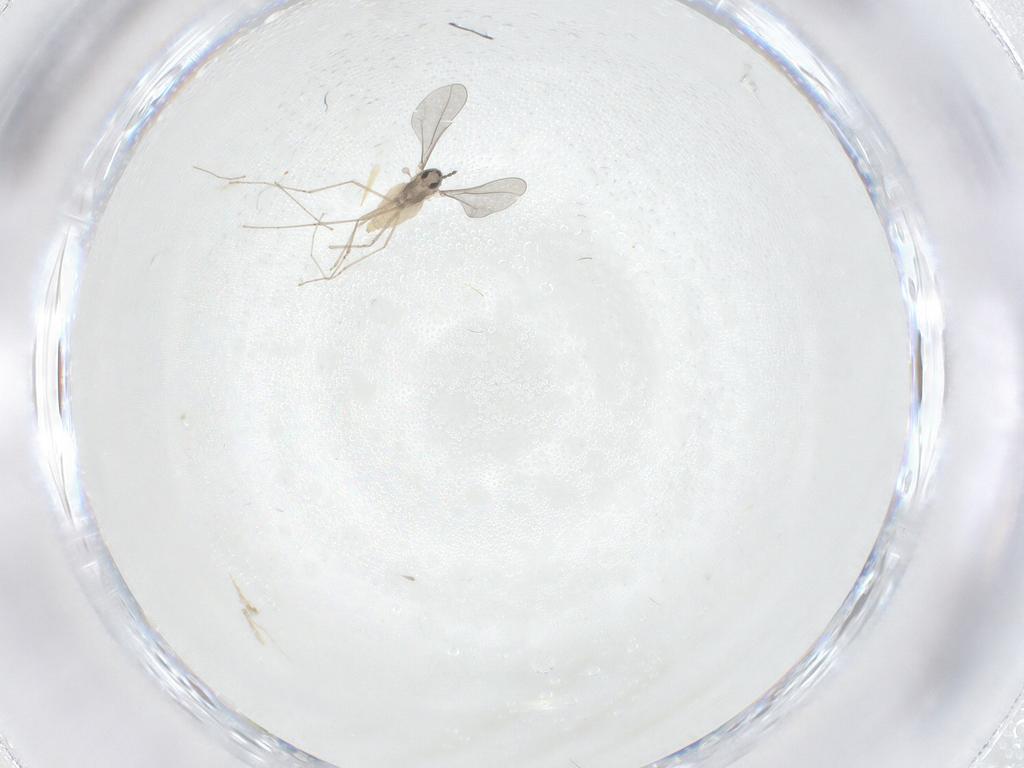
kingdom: Animalia
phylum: Arthropoda
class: Insecta
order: Diptera
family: Cecidomyiidae
